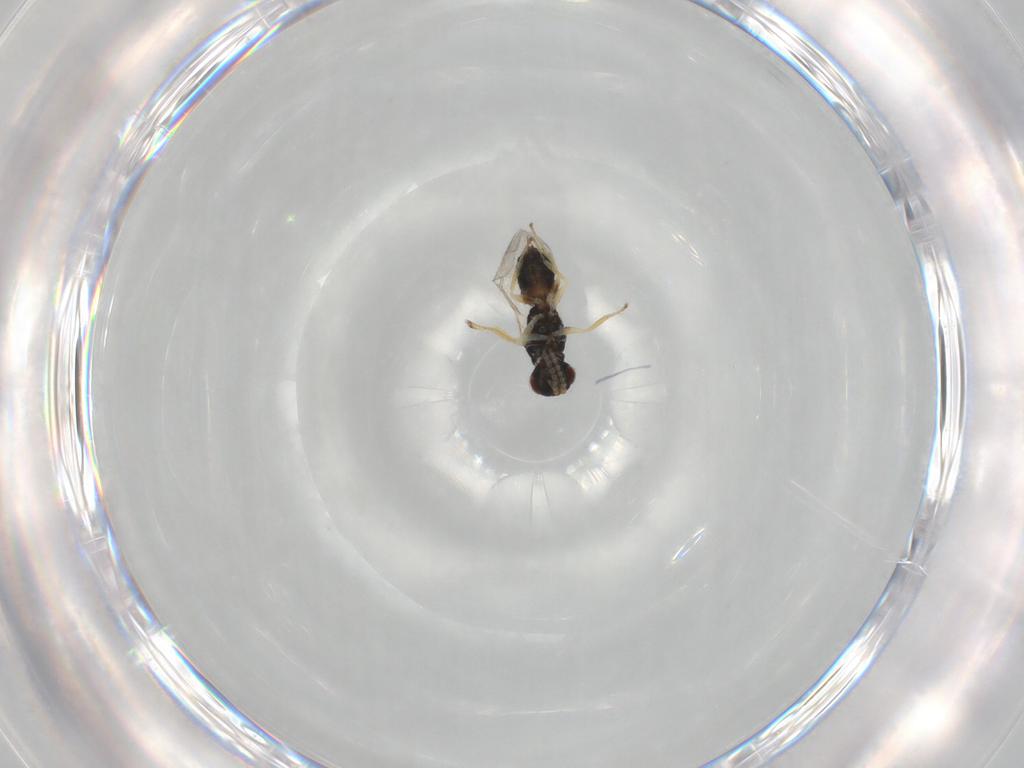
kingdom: Animalia
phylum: Arthropoda
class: Insecta
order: Hymenoptera
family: Eulophidae
